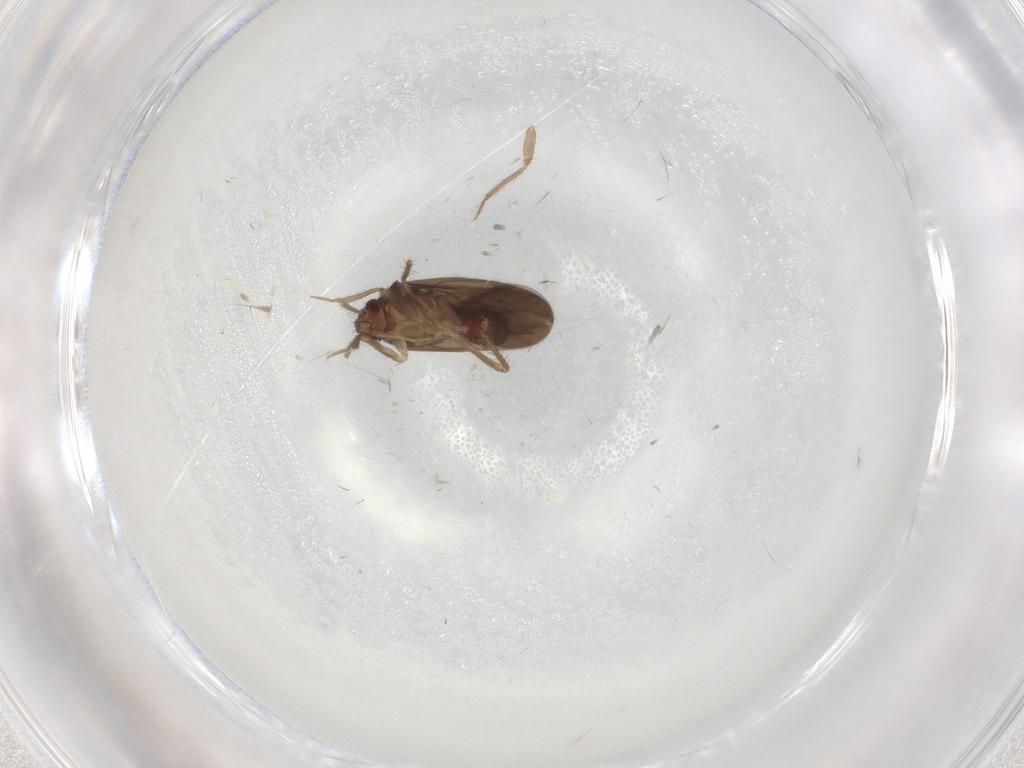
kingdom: Animalia
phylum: Arthropoda
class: Insecta
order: Hemiptera
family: Ceratocombidae
